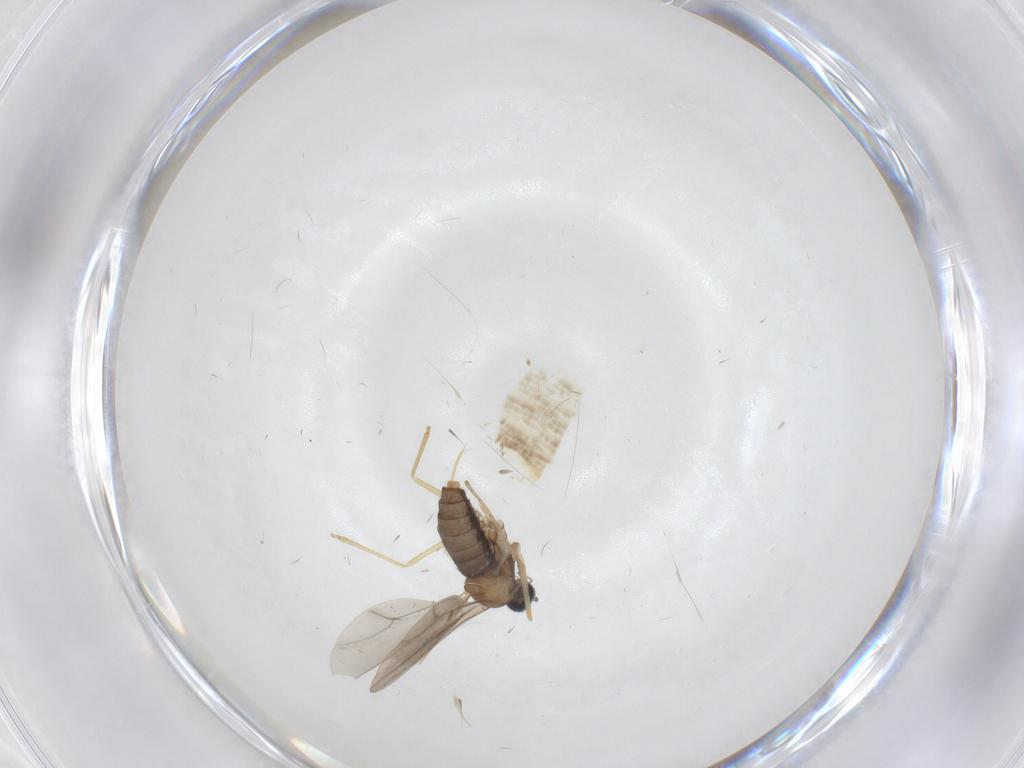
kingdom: Animalia
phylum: Arthropoda
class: Insecta
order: Diptera
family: Cecidomyiidae
